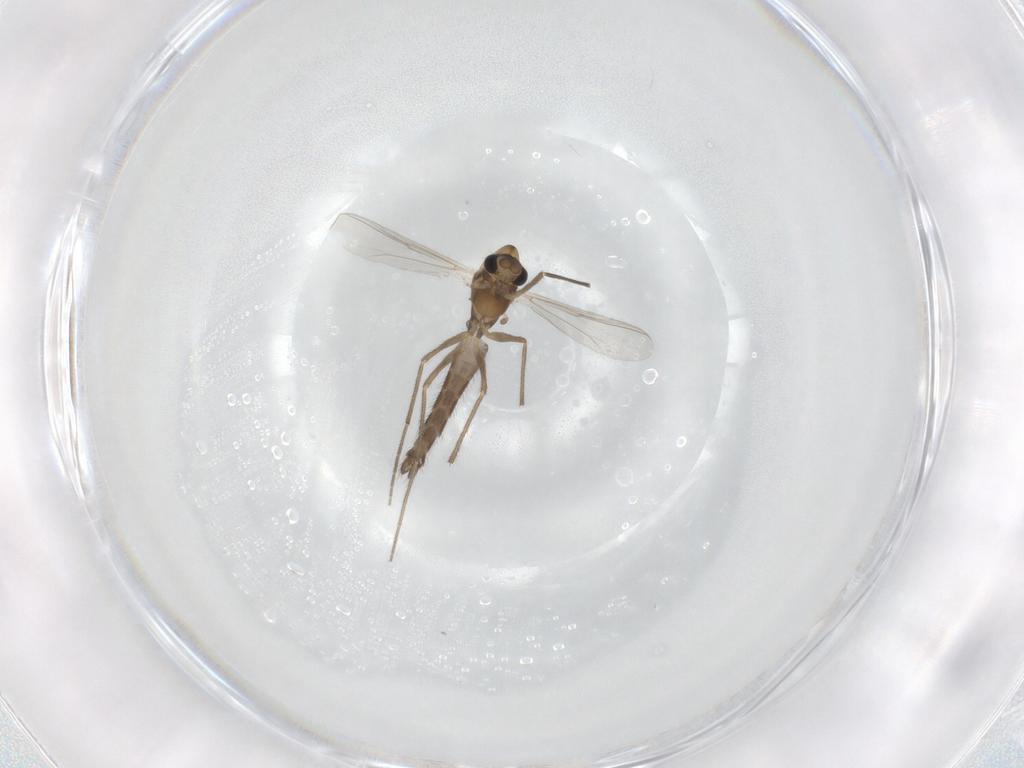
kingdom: Animalia
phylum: Arthropoda
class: Insecta
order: Diptera
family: Chironomidae
